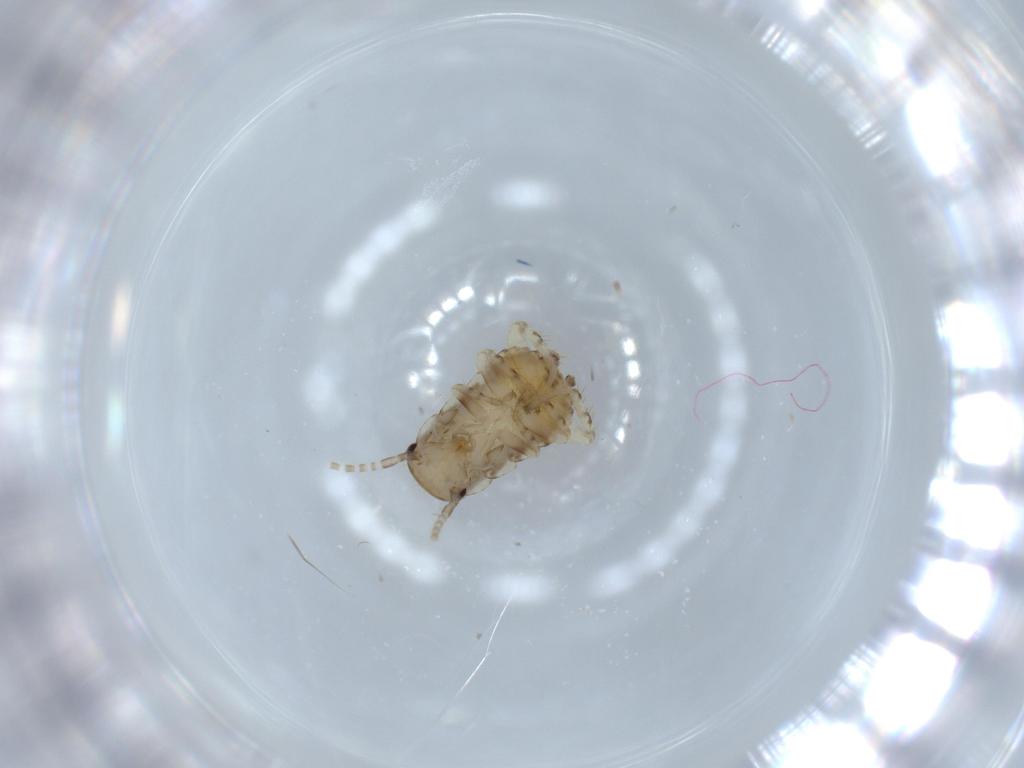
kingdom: Animalia
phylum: Arthropoda
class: Insecta
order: Blattodea
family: Ectobiidae
